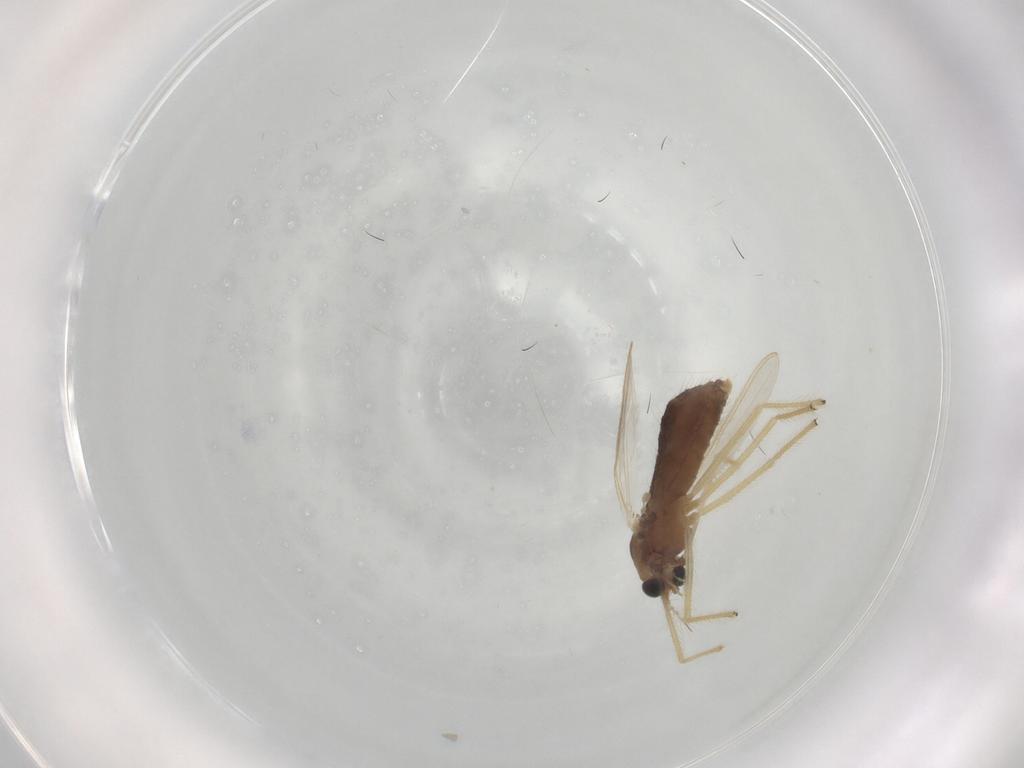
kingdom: Animalia
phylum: Arthropoda
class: Insecta
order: Diptera
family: Chironomidae
